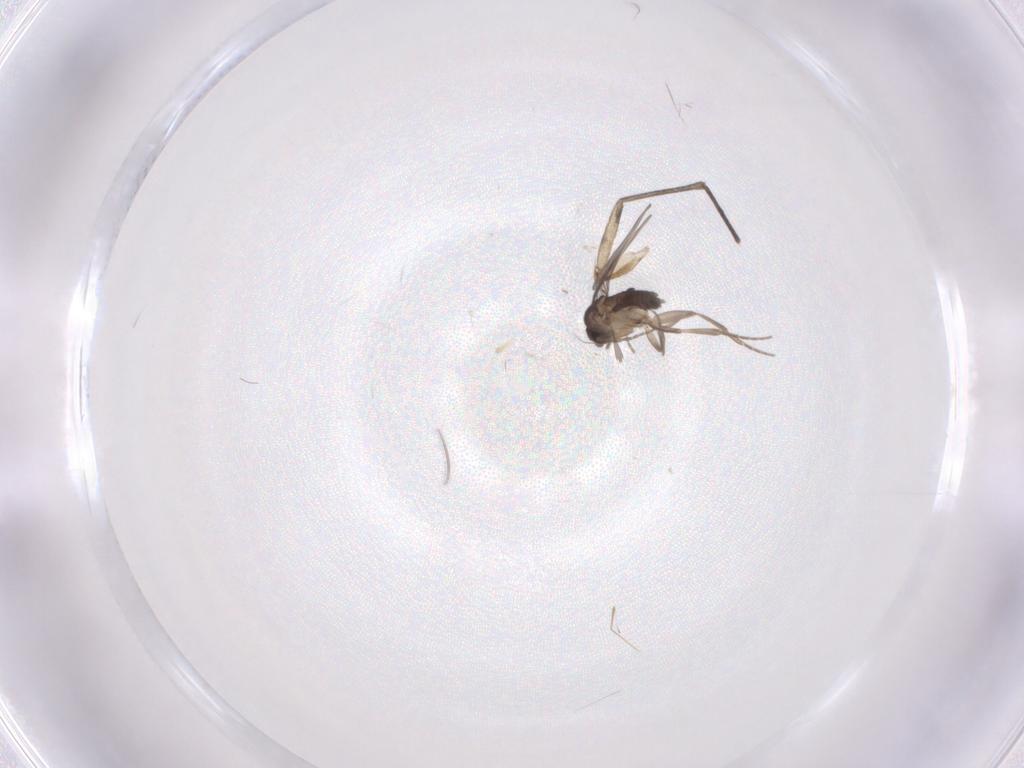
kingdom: Animalia
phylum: Arthropoda
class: Insecta
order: Diptera
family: Phoridae
